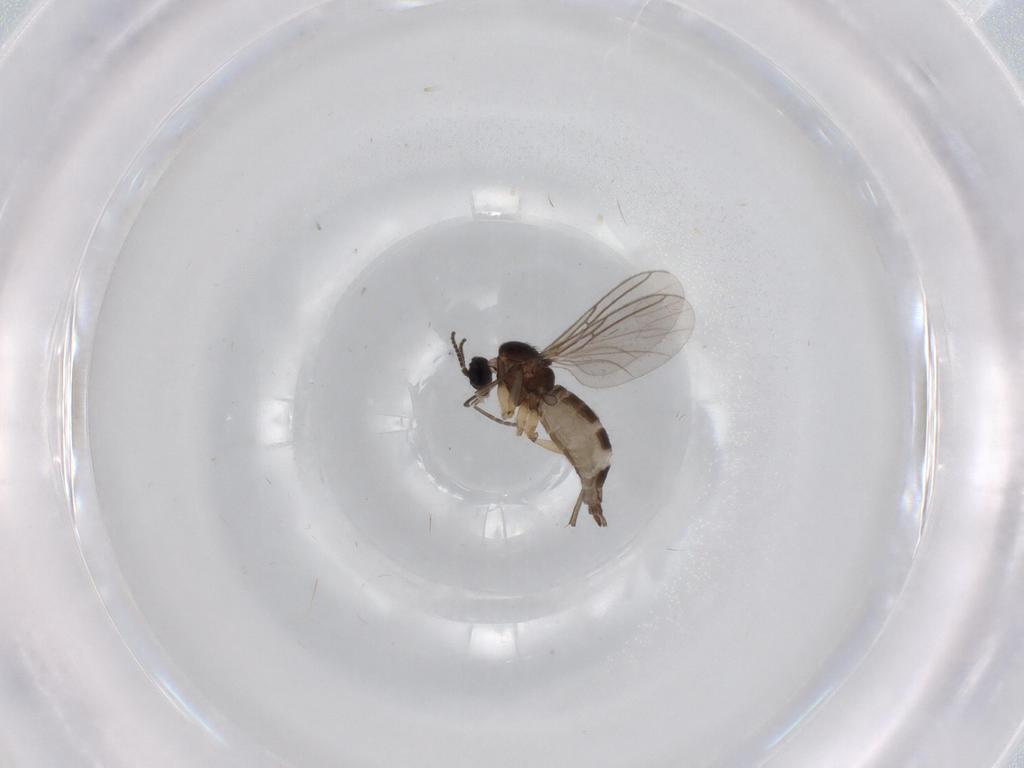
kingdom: Animalia
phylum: Arthropoda
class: Insecta
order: Diptera
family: Sciaridae
